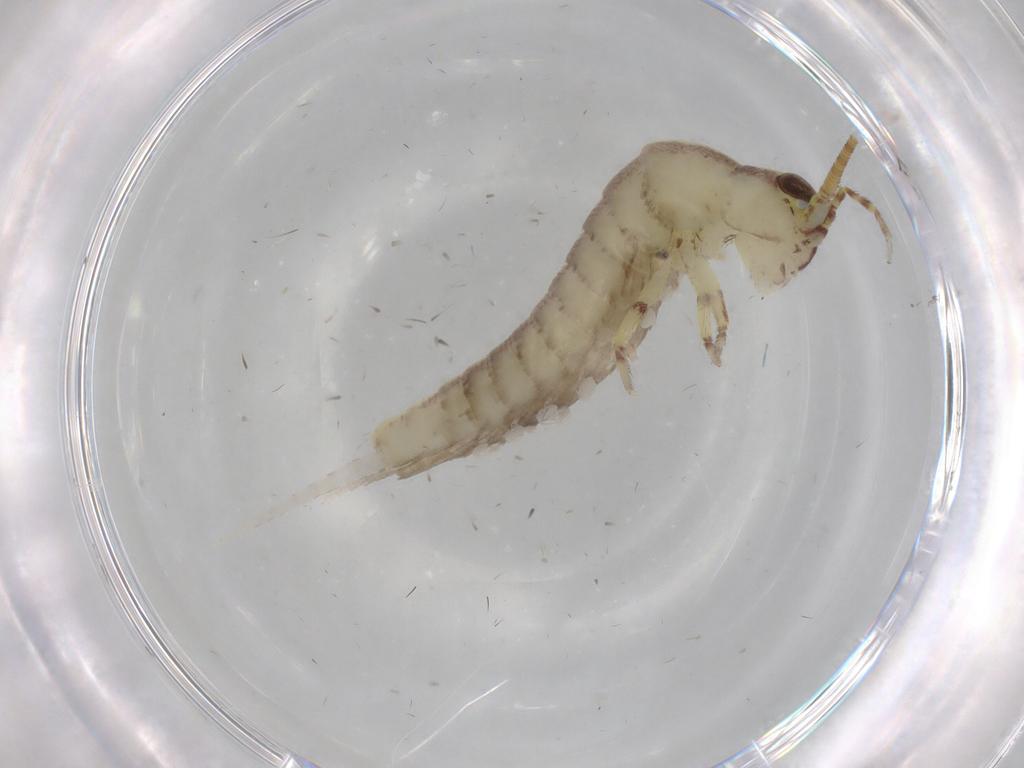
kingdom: Animalia
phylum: Arthropoda
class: Insecta
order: Archaeognatha
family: Machilidae
